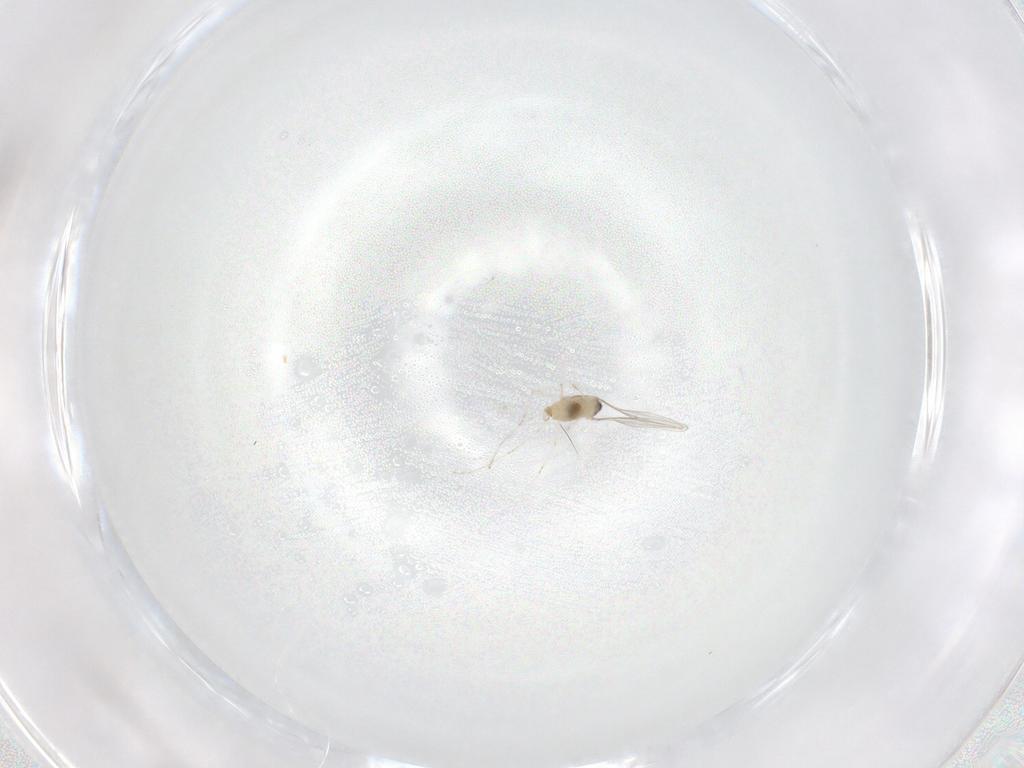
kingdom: Animalia
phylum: Arthropoda
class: Insecta
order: Diptera
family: Cecidomyiidae
